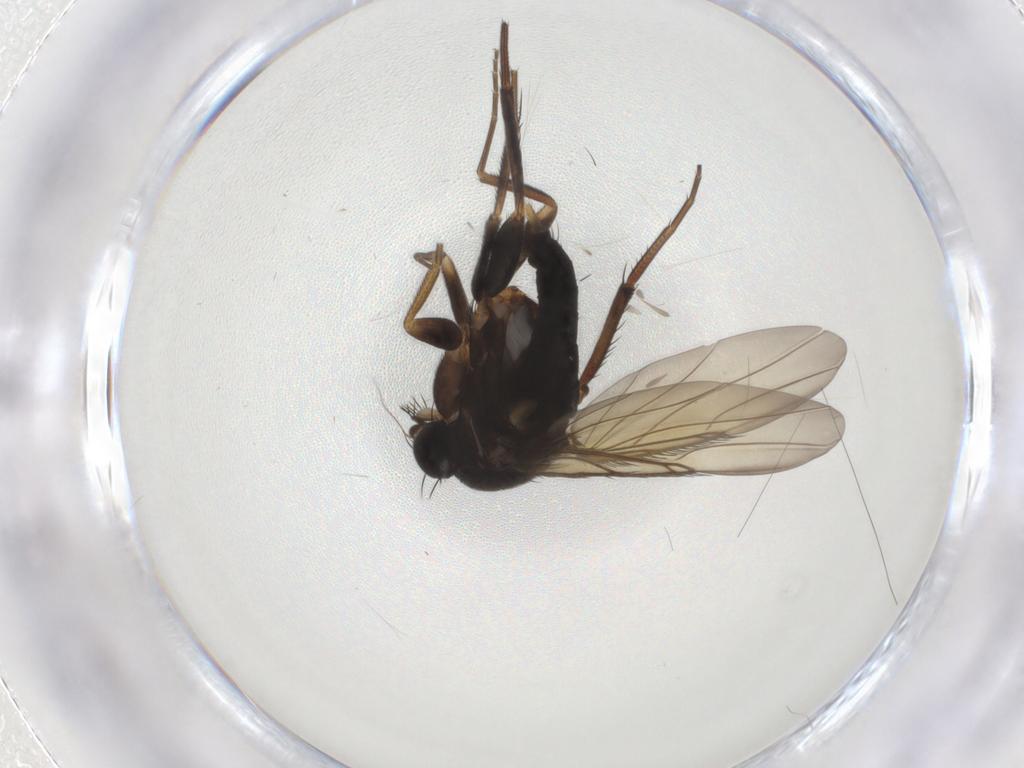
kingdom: Animalia
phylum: Arthropoda
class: Insecta
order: Diptera
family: Phoridae
